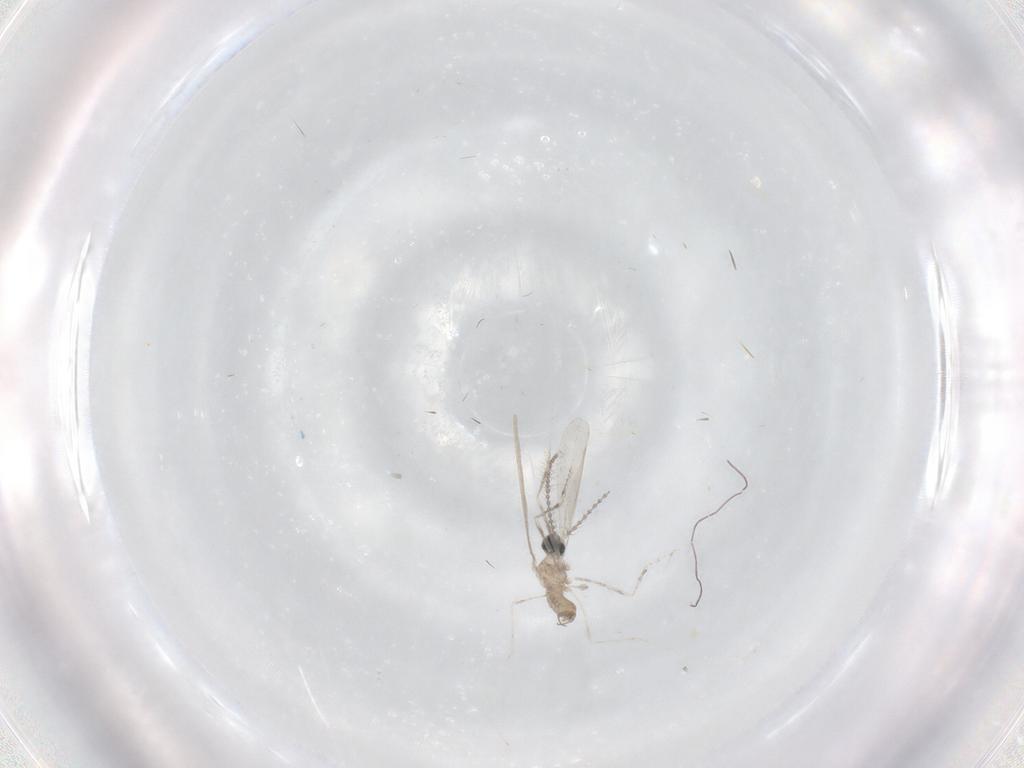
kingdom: Animalia
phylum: Arthropoda
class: Insecta
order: Diptera
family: Cecidomyiidae
